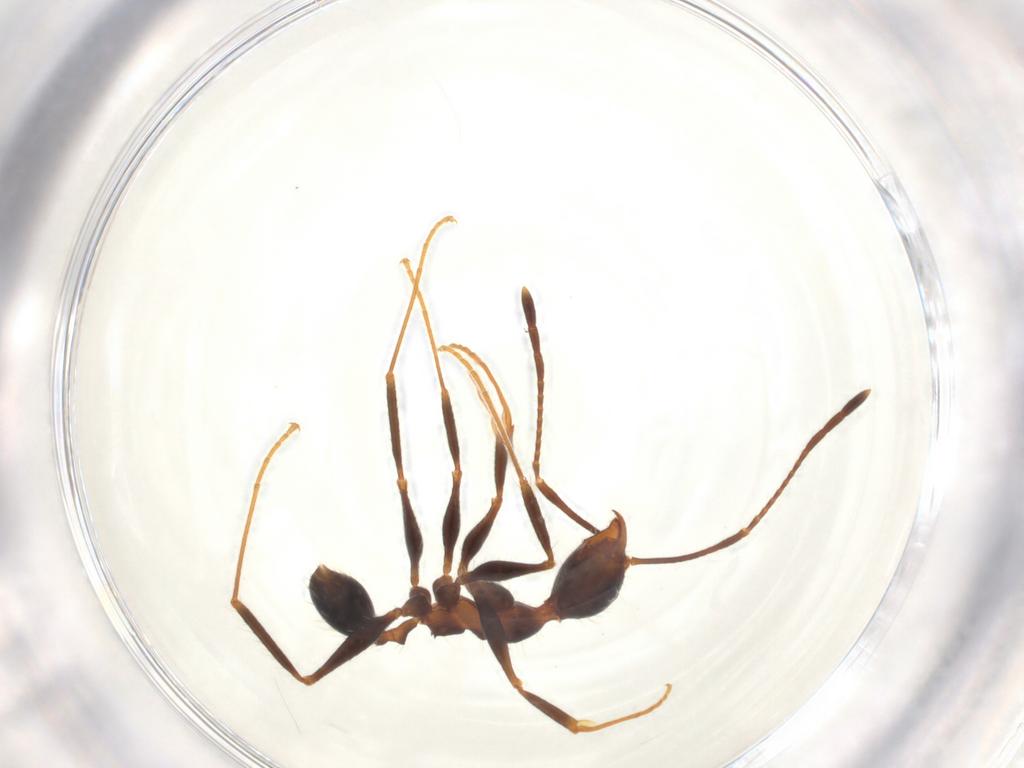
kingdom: Animalia
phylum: Arthropoda
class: Insecta
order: Hymenoptera
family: Formicidae
